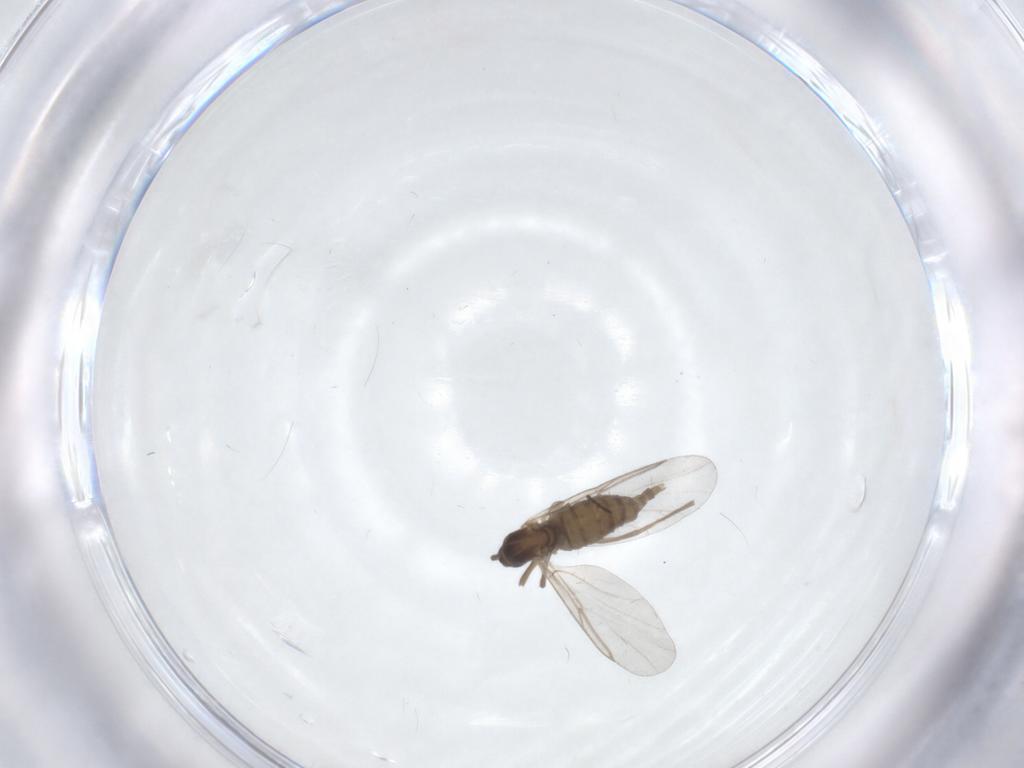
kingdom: Animalia
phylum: Arthropoda
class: Insecta
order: Diptera
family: Chironomidae
